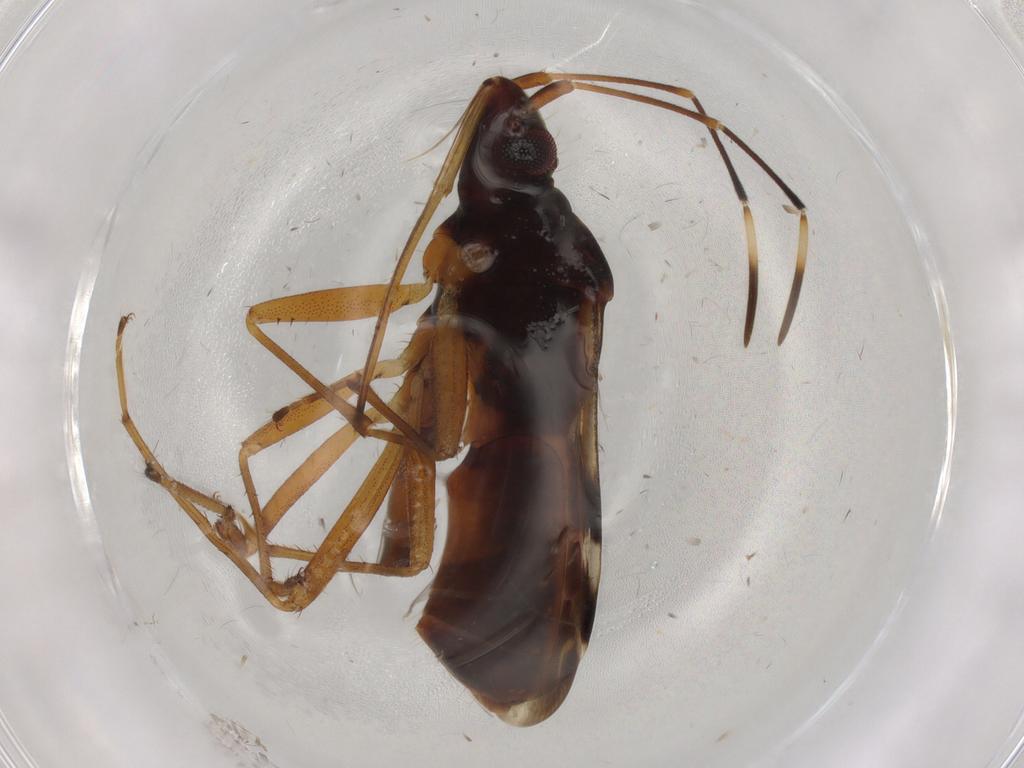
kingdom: Animalia
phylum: Arthropoda
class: Insecta
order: Hemiptera
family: Rhyparochromidae
